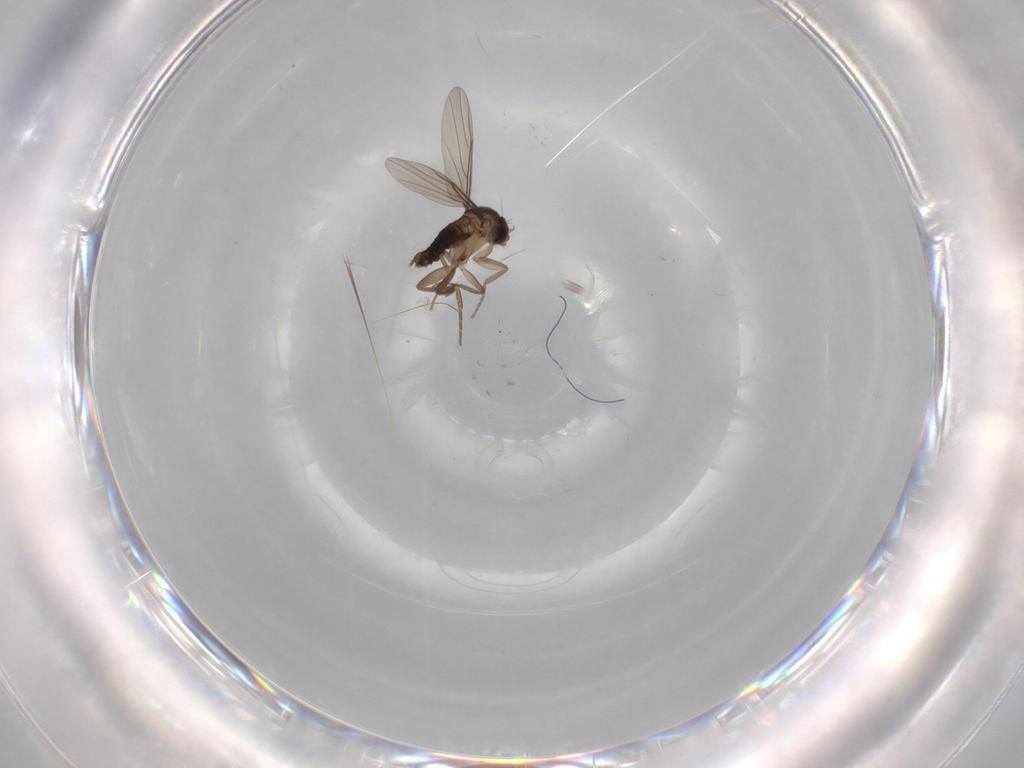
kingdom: Animalia
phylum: Arthropoda
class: Insecta
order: Diptera
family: Phoridae
